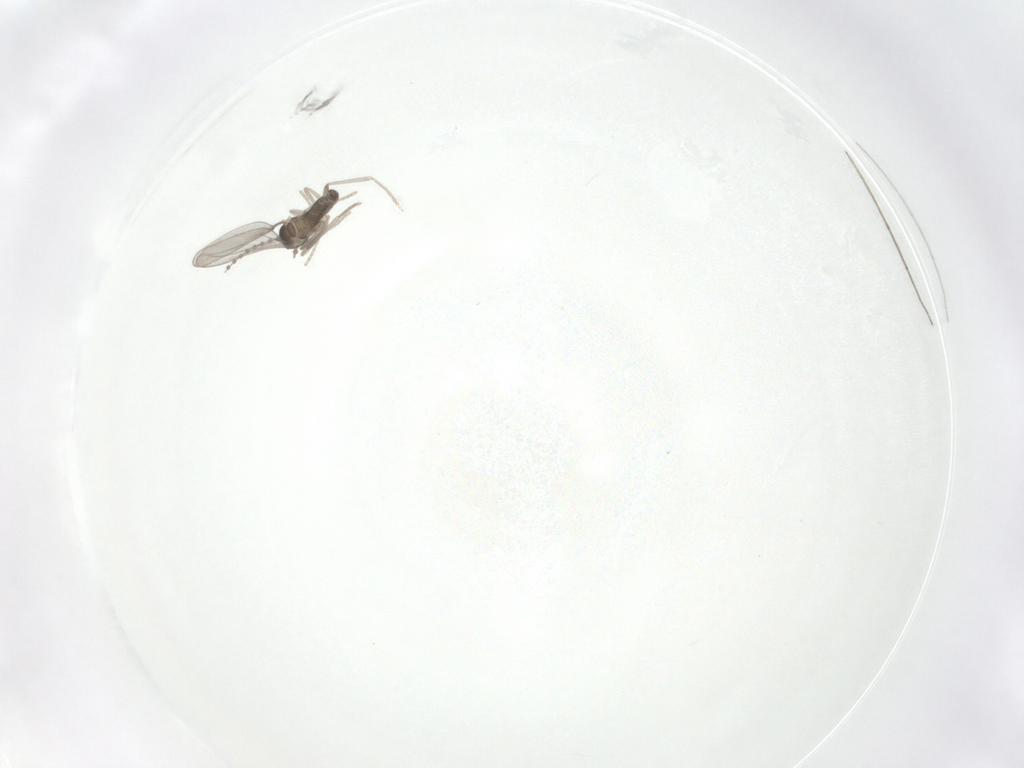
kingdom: Animalia
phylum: Arthropoda
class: Insecta
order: Diptera
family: Cecidomyiidae
